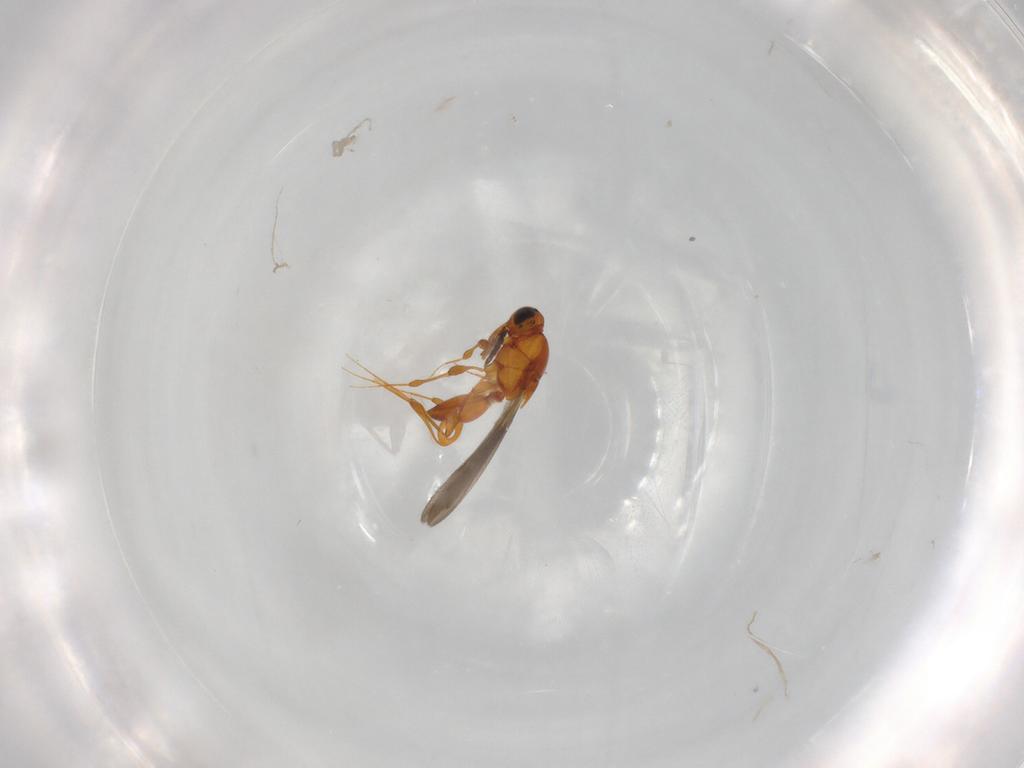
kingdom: Animalia
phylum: Arthropoda
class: Insecta
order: Hymenoptera
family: Platygastridae
